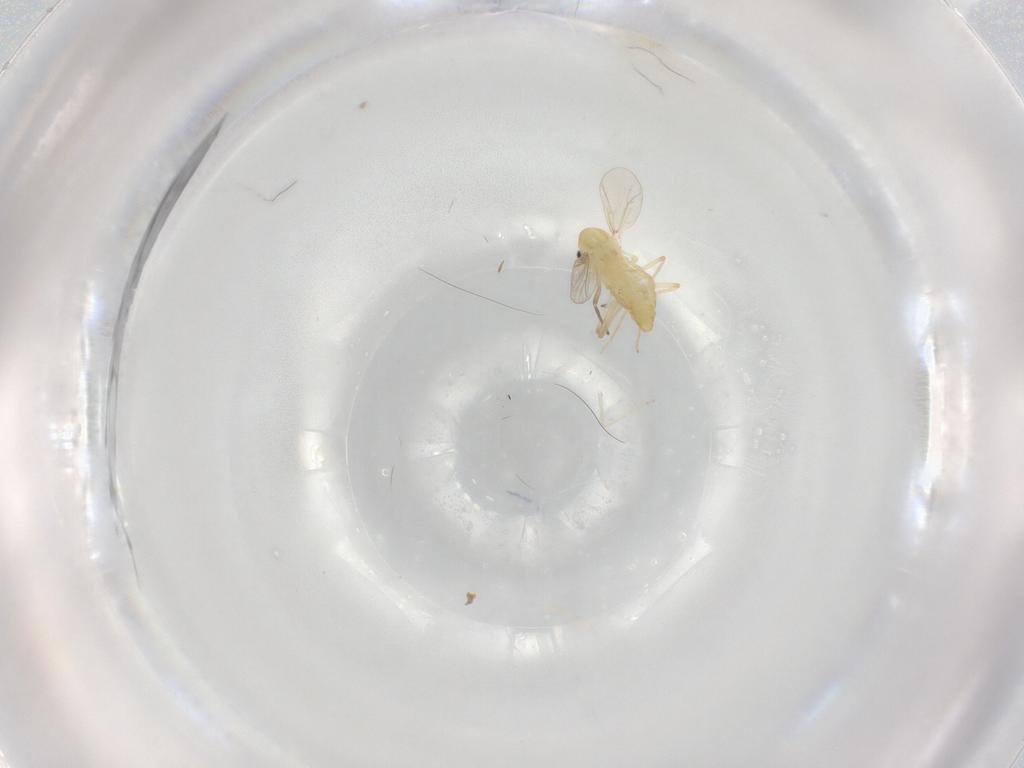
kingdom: Animalia
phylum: Arthropoda
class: Insecta
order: Diptera
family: Chironomidae
